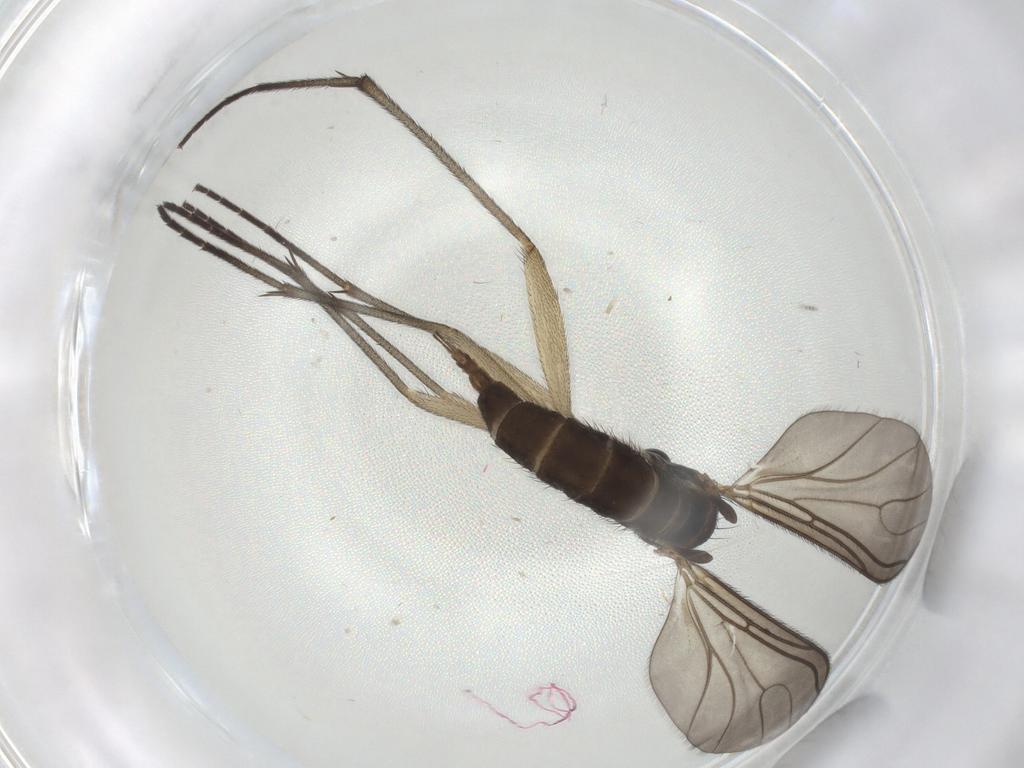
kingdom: Animalia
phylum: Arthropoda
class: Insecta
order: Diptera
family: Sciaridae
